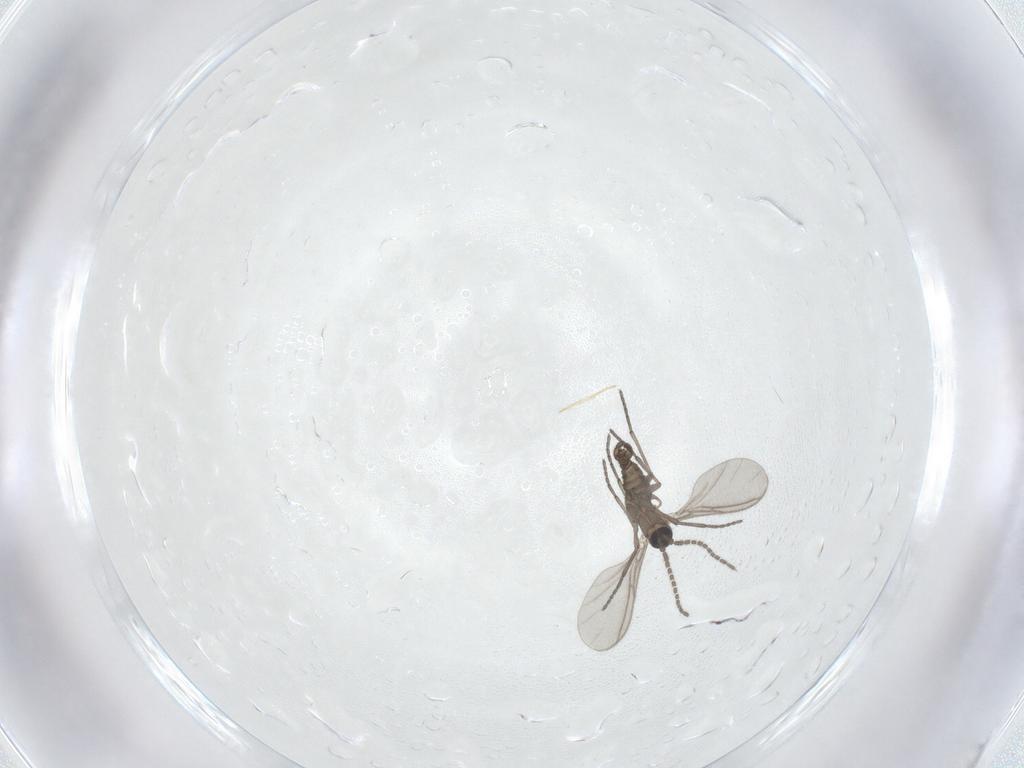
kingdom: Animalia
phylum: Arthropoda
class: Insecta
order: Diptera
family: Sciaridae
